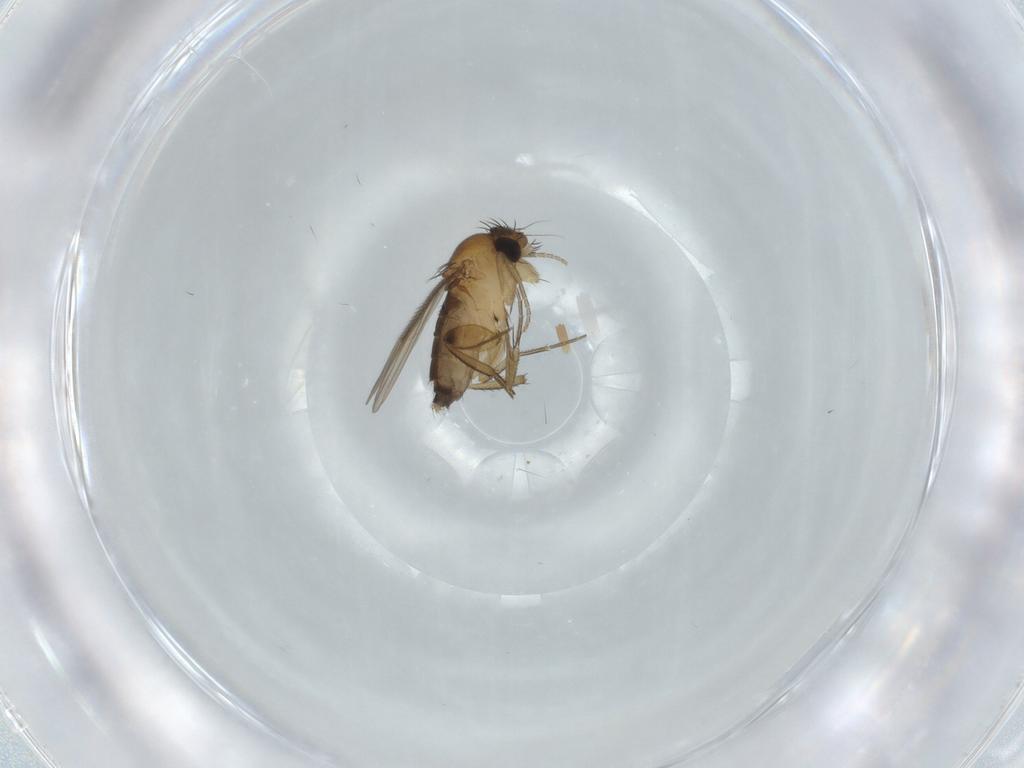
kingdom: Animalia
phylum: Arthropoda
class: Insecta
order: Diptera
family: Phoridae
